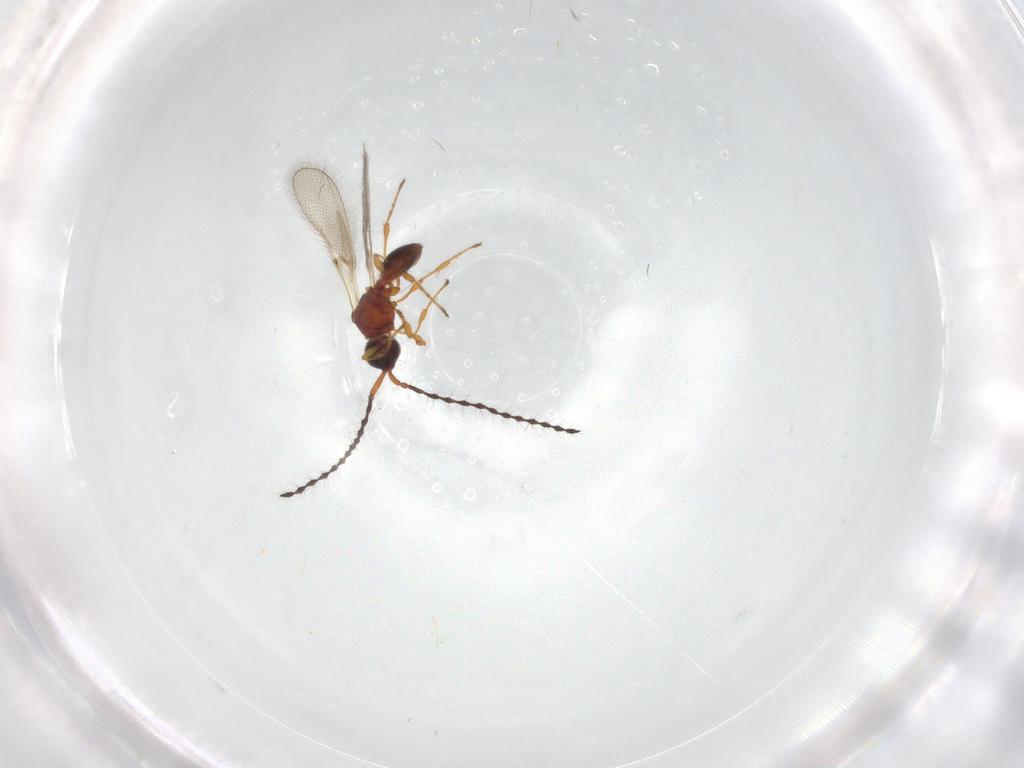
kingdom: Animalia
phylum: Arthropoda
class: Insecta
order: Hymenoptera
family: Diapriidae
